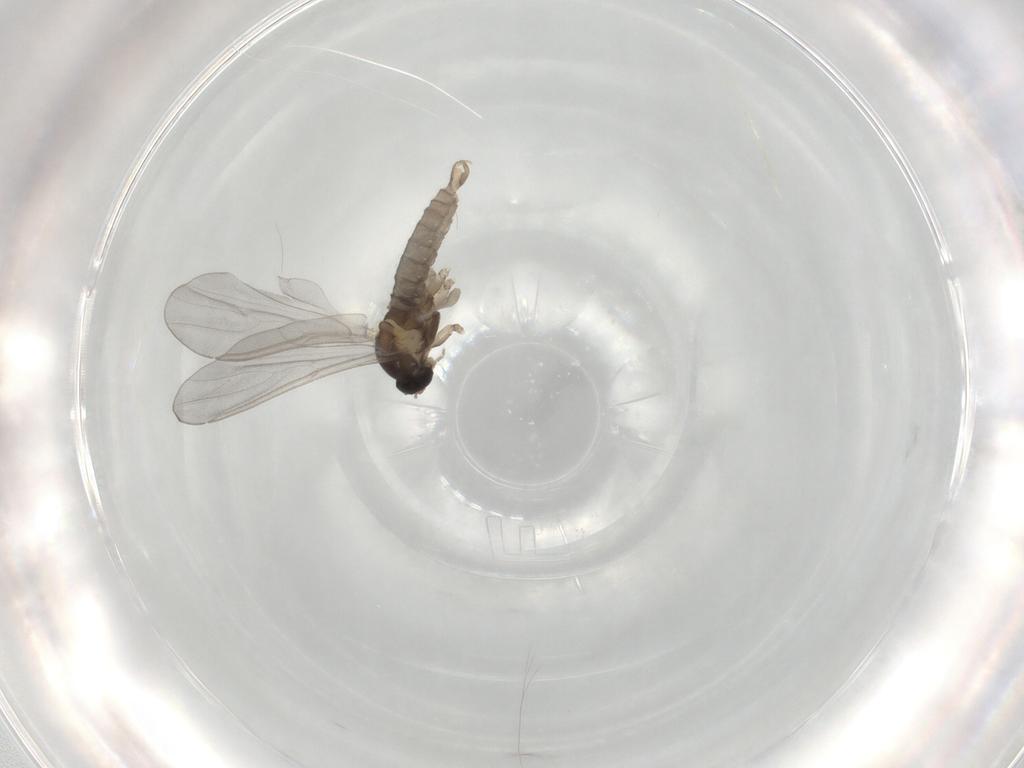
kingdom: Animalia
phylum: Arthropoda
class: Insecta
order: Diptera
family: Cecidomyiidae
